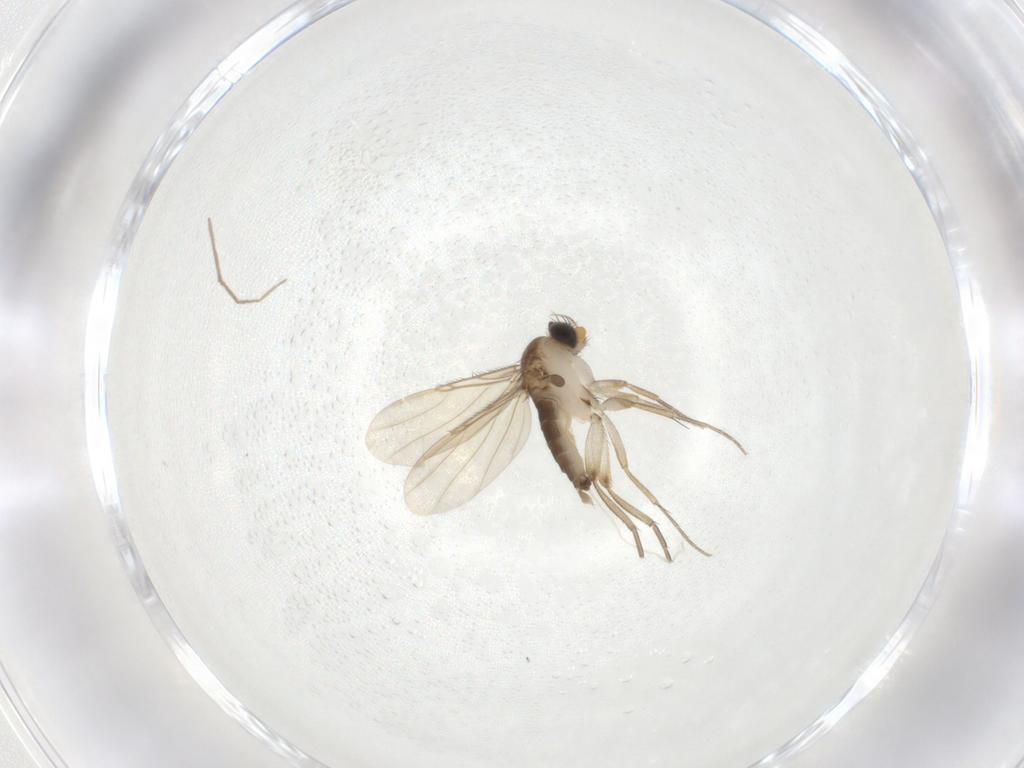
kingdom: Animalia
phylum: Arthropoda
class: Insecta
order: Diptera
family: Phoridae
